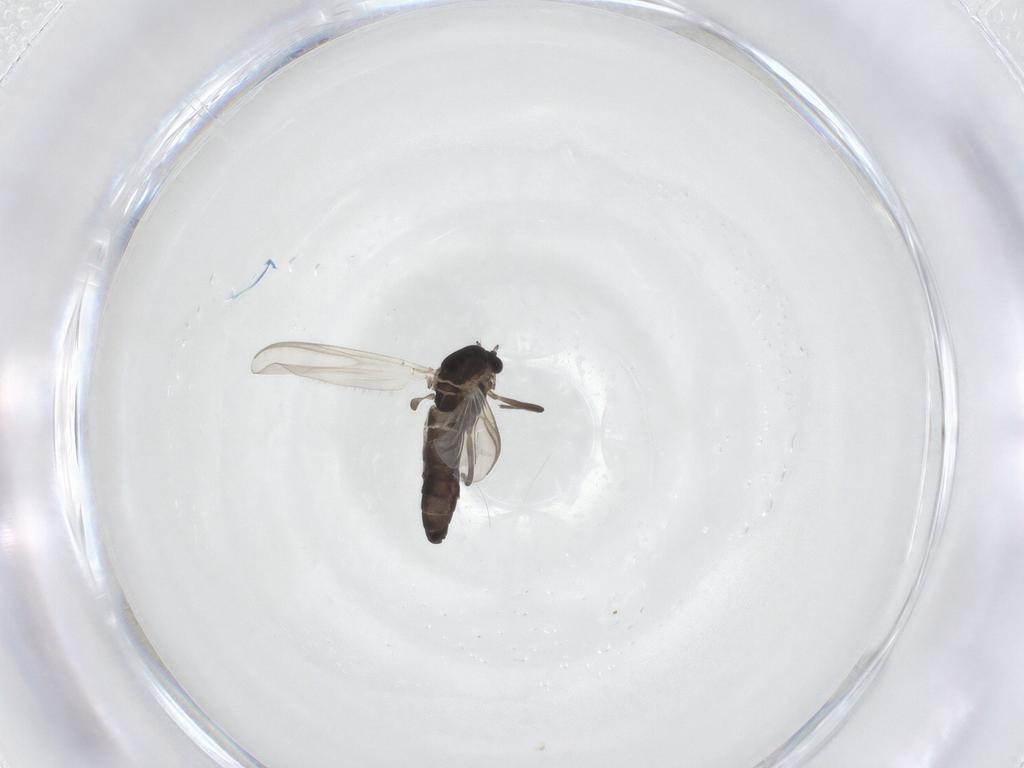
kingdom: Animalia
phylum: Arthropoda
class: Insecta
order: Diptera
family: Chironomidae
